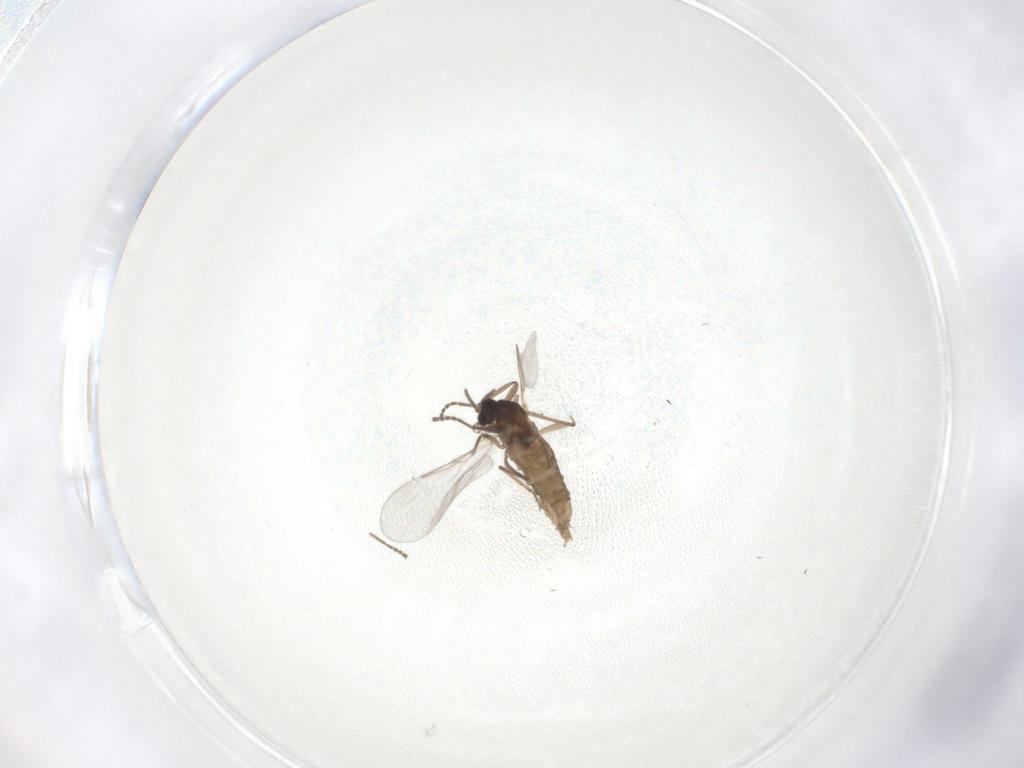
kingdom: Animalia
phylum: Arthropoda
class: Insecta
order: Diptera
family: Cecidomyiidae
